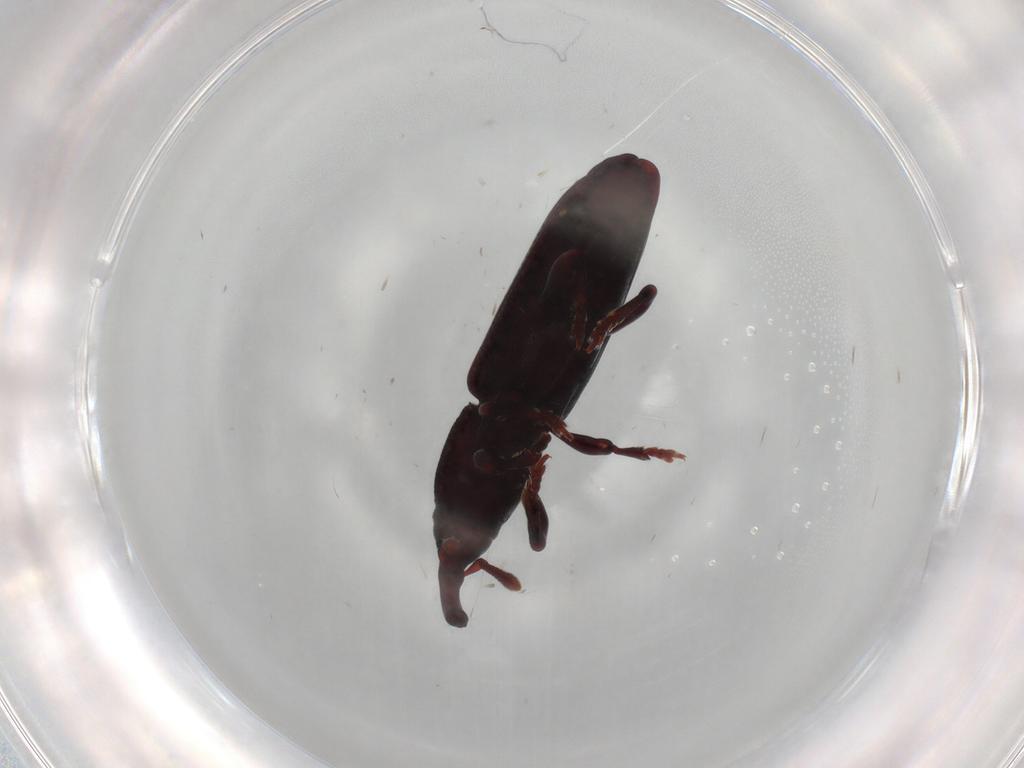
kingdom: Animalia
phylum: Arthropoda
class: Insecta
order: Coleoptera
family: Curculionidae
